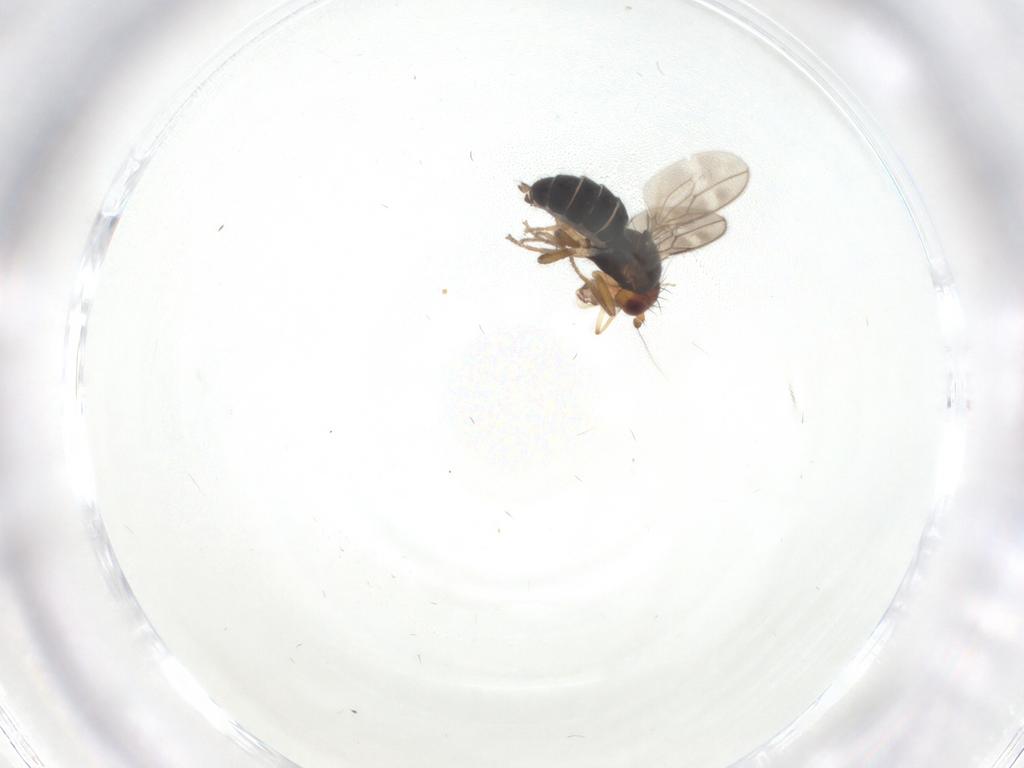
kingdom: Animalia
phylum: Arthropoda
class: Insecta
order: Diptera
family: Sphaeroceridae
